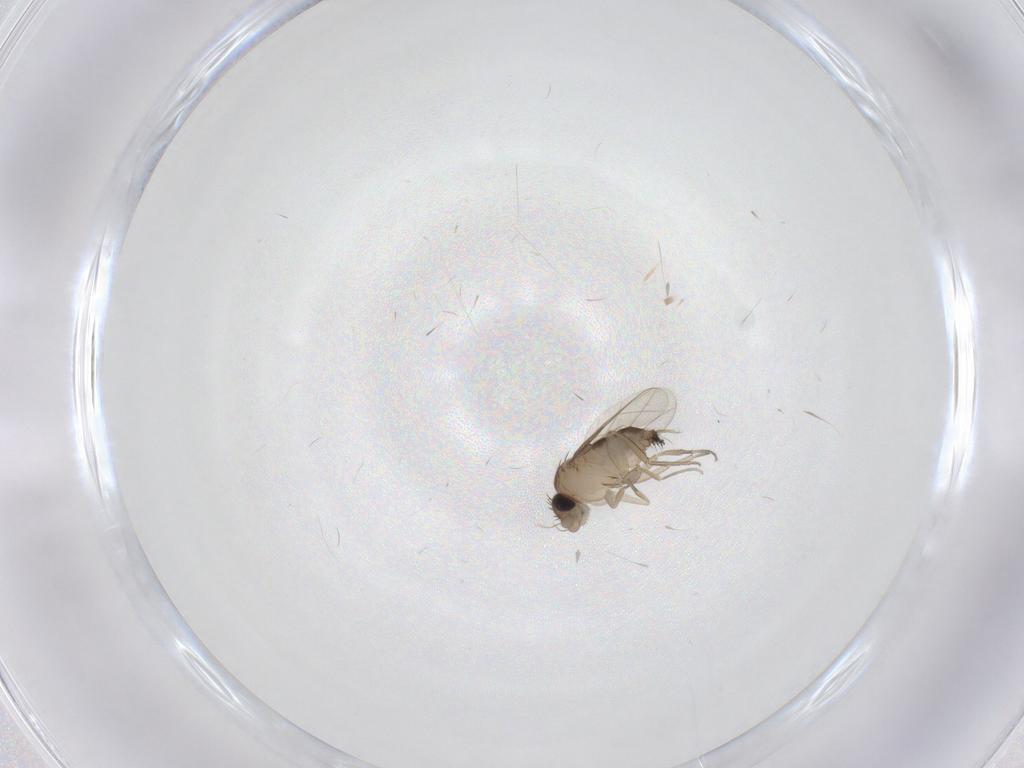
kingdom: Animalia
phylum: Arthropoda
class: Insecta
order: Diptera
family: Phoridae
